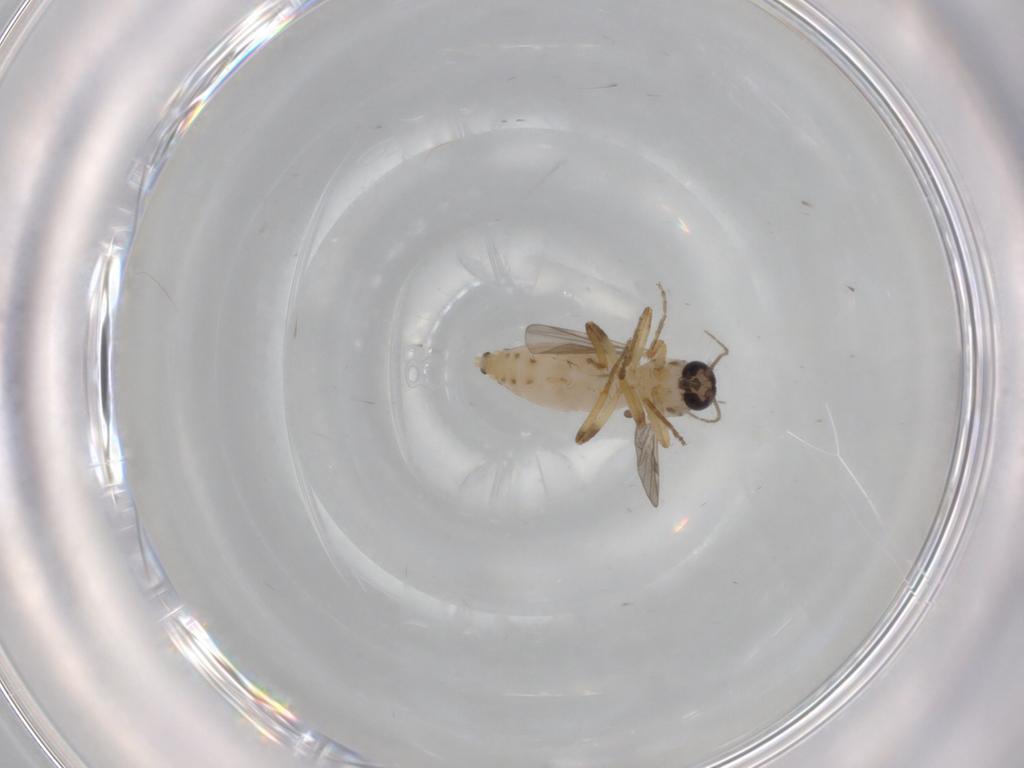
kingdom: Animalia
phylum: Arthropoda
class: Insecta
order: Diptera
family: Ceratopogonidae
